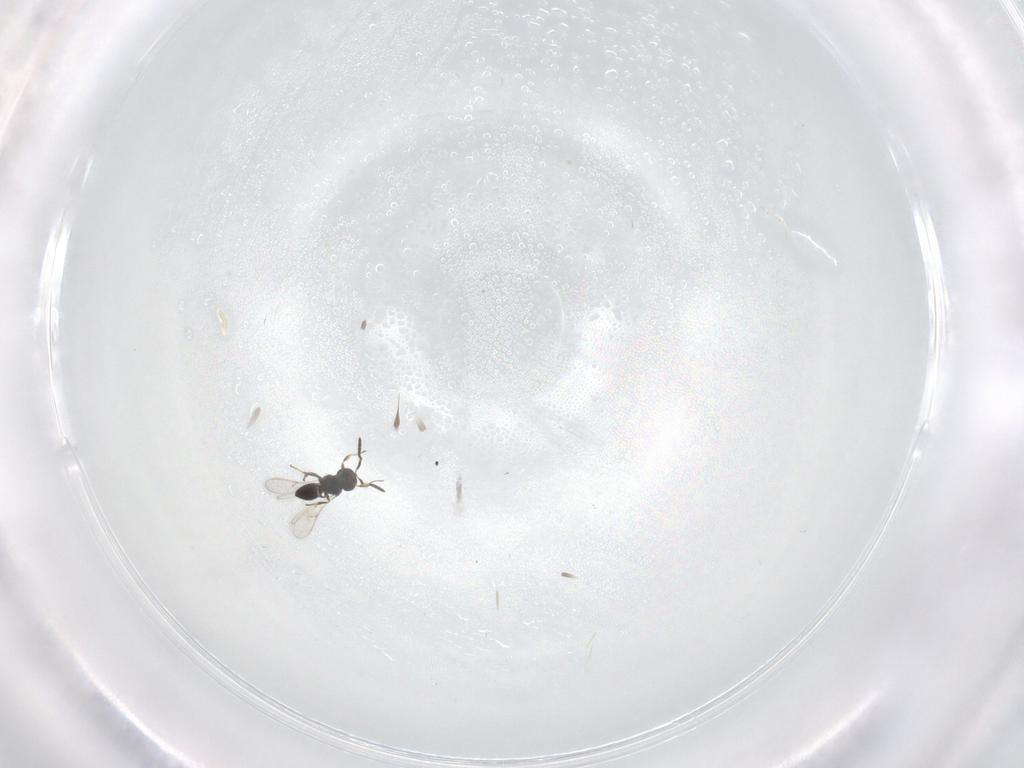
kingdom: Animalia
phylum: Arthropoda
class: Insecta
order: Hymenoptera
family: Scelionidae
